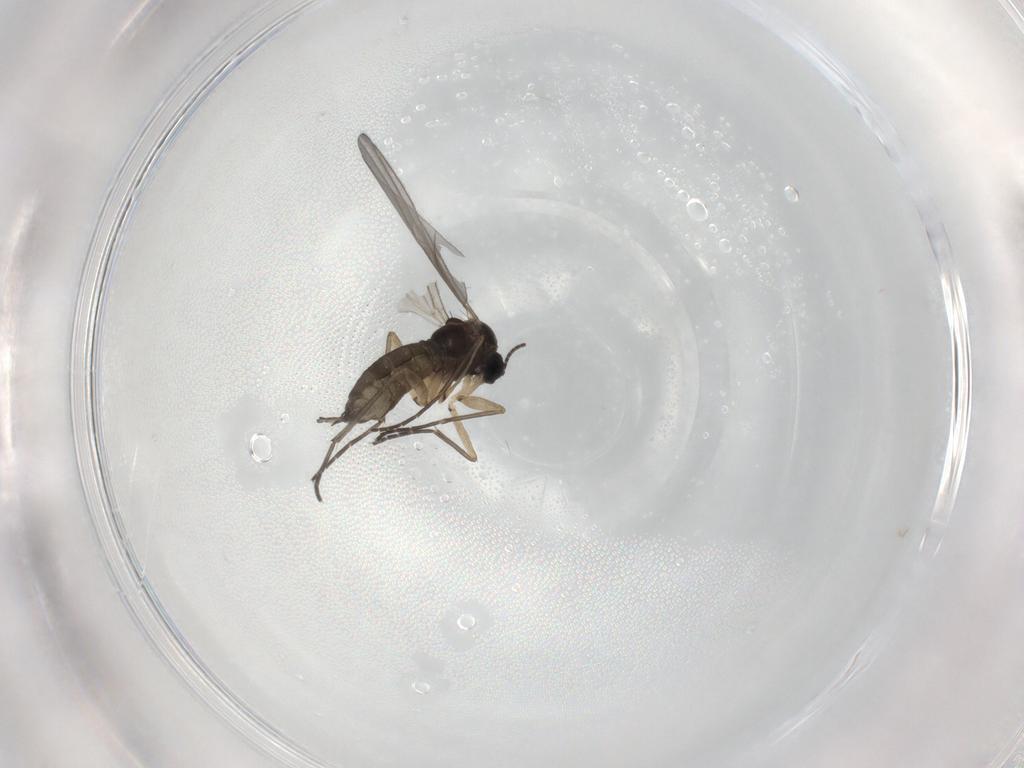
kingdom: Animalia
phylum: Arthropoda
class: Insecta
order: Diptera
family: Sciaridae
